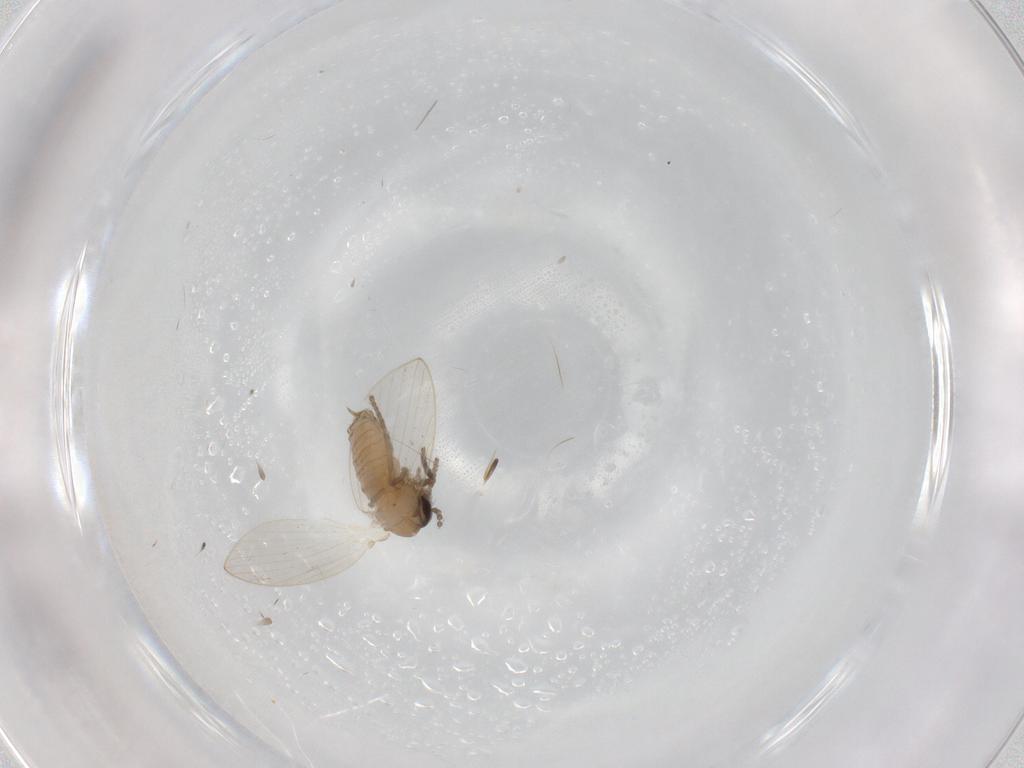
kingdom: Animalia
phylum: Arthropoda
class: Insecta
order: Diptera
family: Psychodidae
